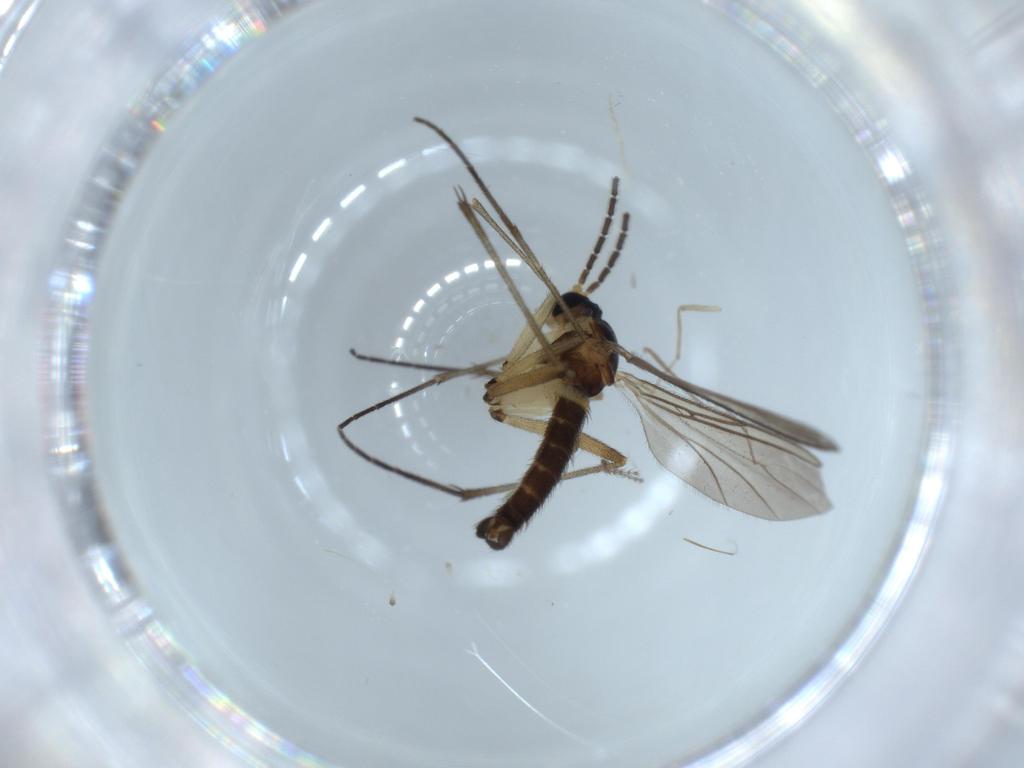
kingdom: Animalia
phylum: Arthropoda
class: Insecta
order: Diptera
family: Cecidomyiidae
